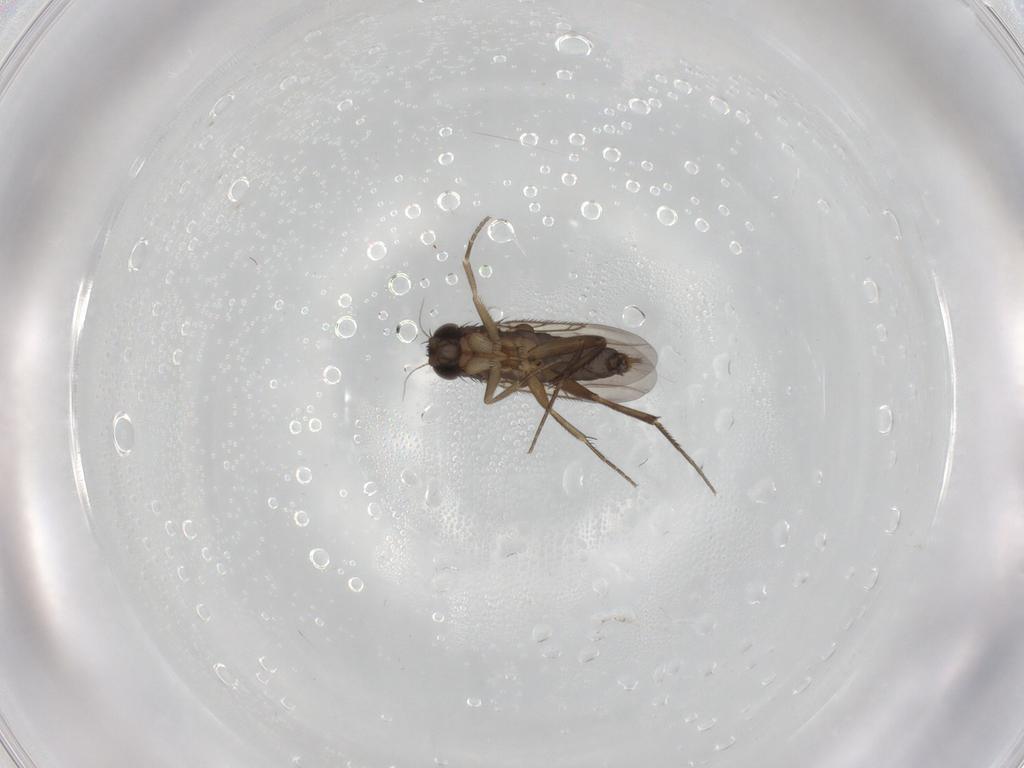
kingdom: Animalia
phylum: Arthropoda
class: Insecta
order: Diptera
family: Phoridae
